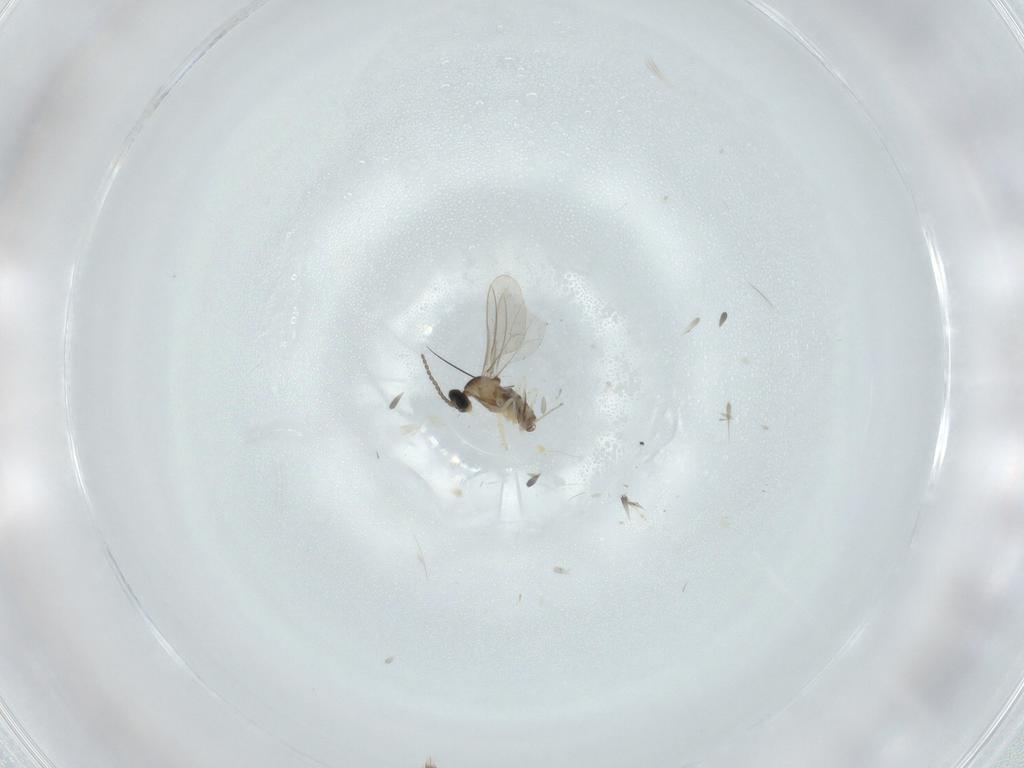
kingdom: Animalia
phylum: Arthropoda
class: Insecta
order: Diptera
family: Cecidomyiidae
